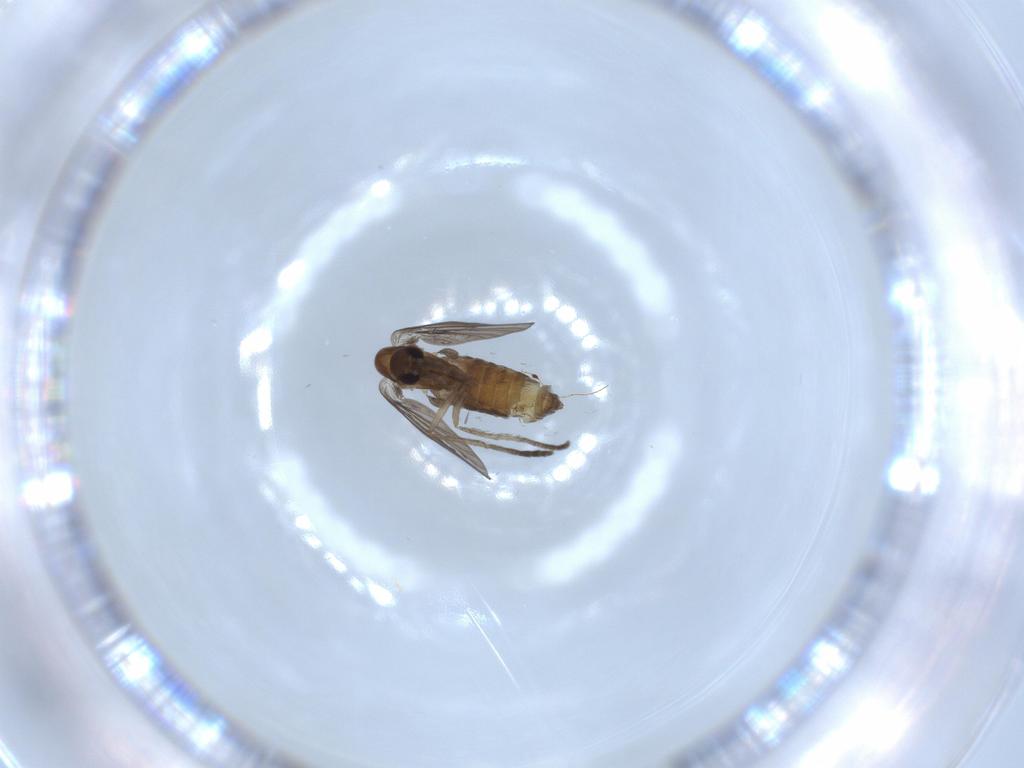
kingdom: Animalia
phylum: Arthropoda
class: Insecta
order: Diptera
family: Psychodidae
